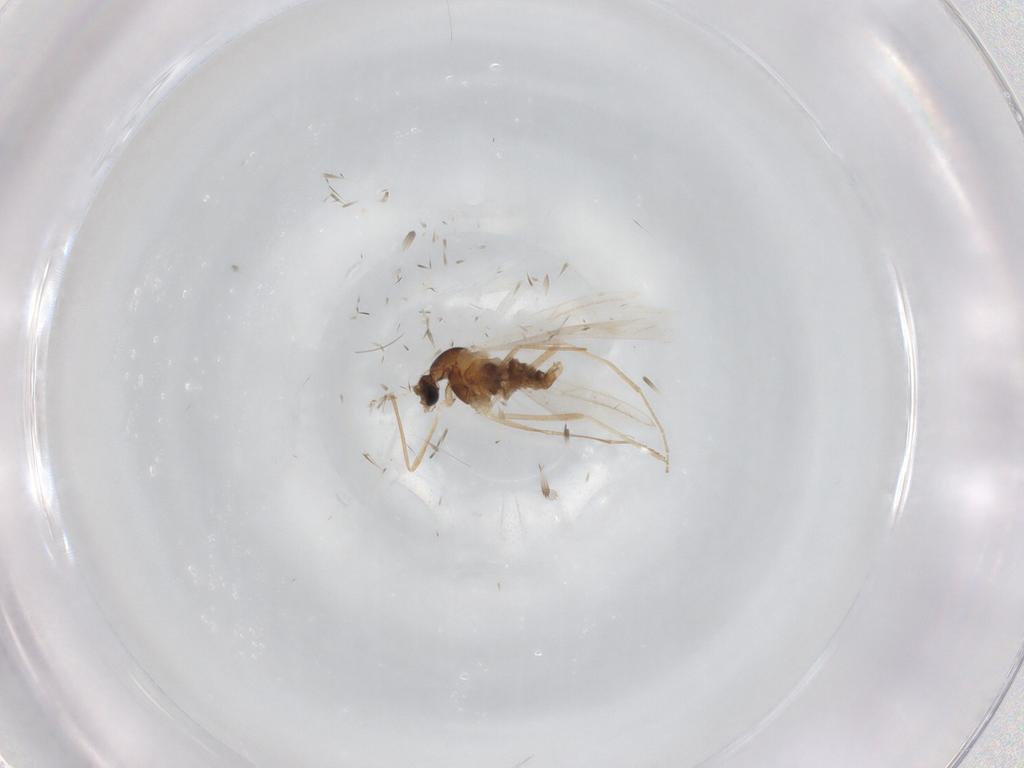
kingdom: Animalia
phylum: Arthropoda
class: Insecta
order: Diptera
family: Cecidomyiidae
